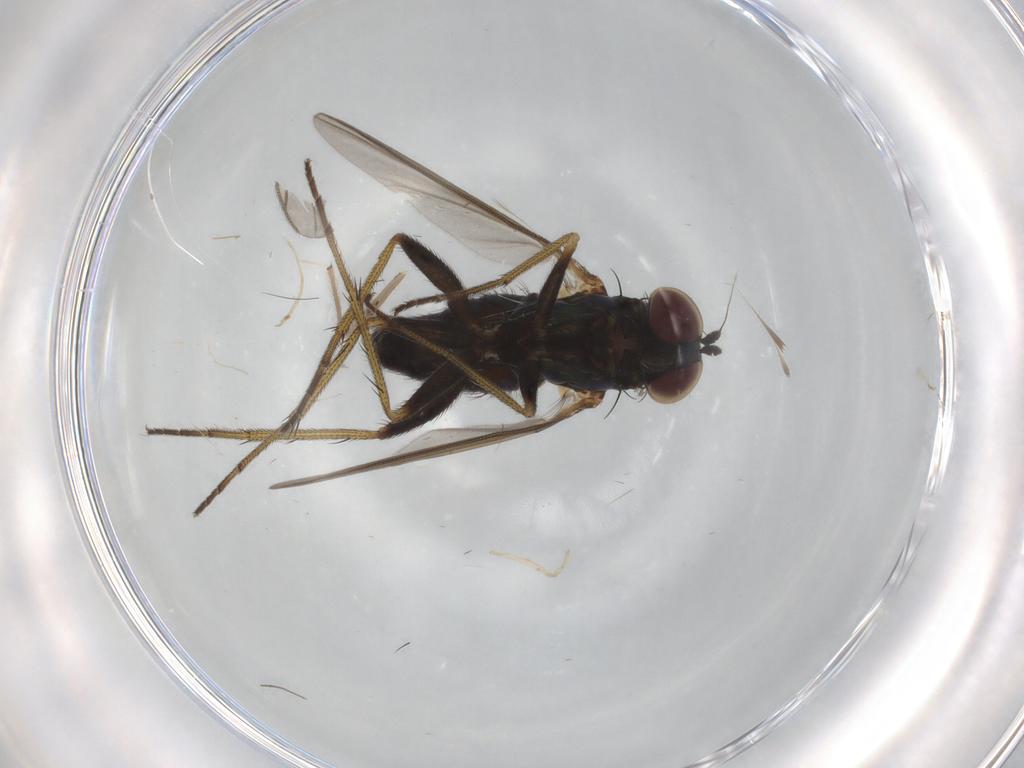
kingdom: Animalia
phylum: Arthropoda
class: Insecta
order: Diptera
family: Dolichopodidae
